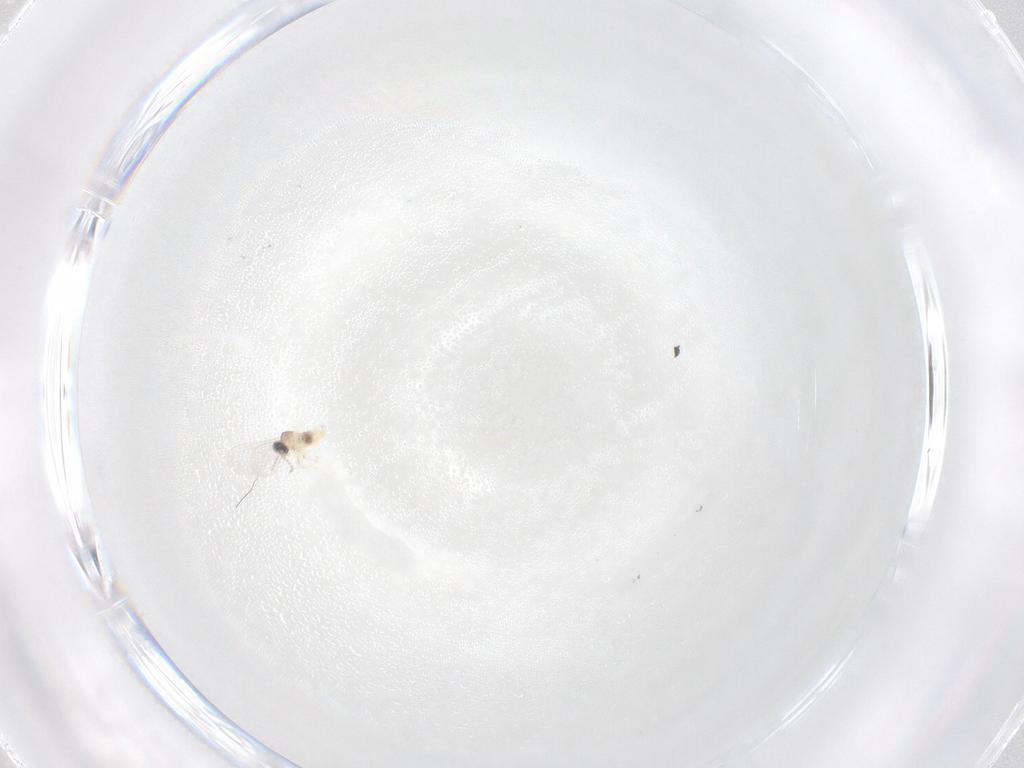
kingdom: Animalia
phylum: Arthropoda
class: Insecta
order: Diptera
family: Cecidomyiidae
